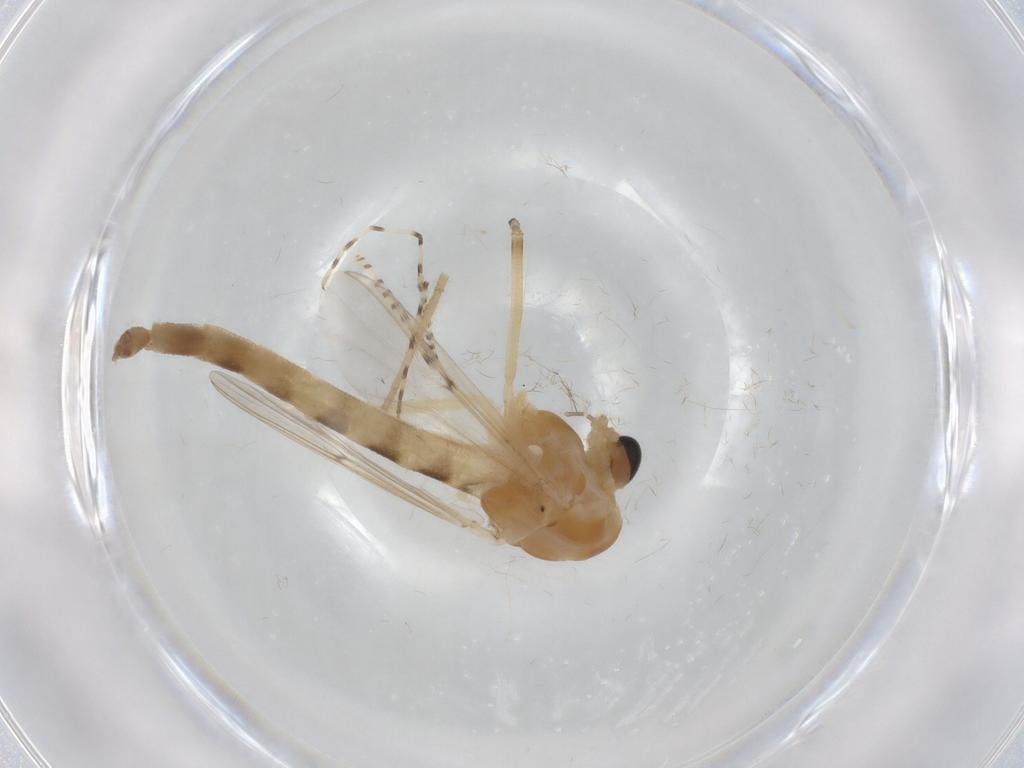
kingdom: Animalia
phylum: Arthropoda
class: Insecta
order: Diptera
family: Chironomidae
